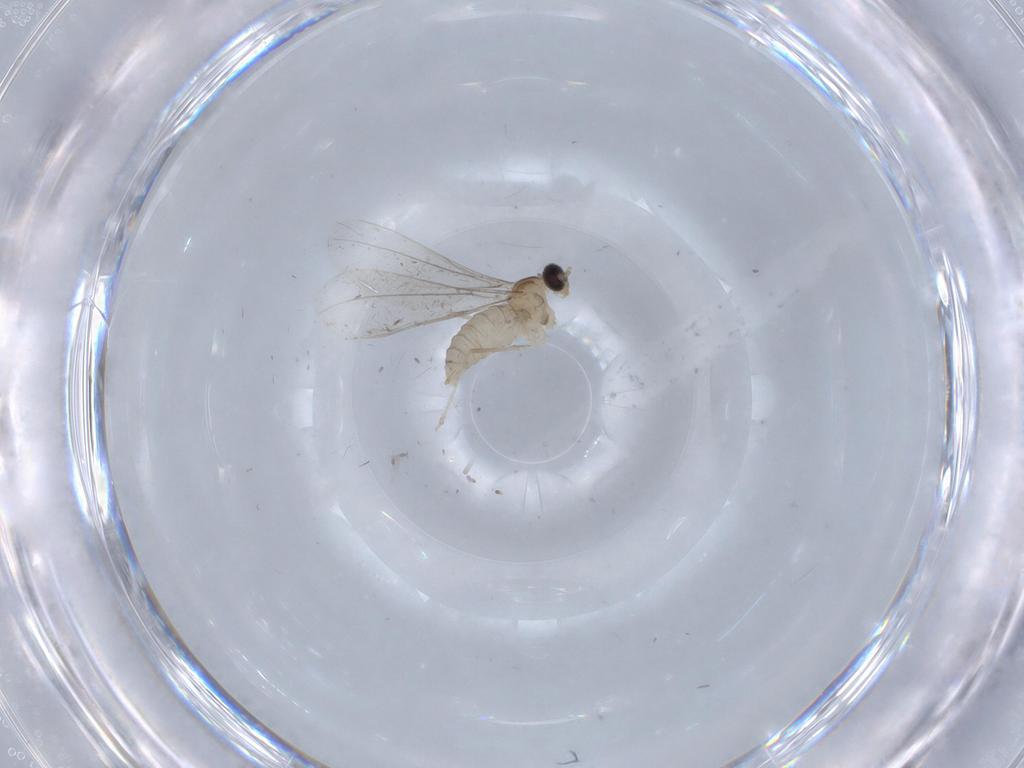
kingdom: Animalia
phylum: Arthropoda
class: Insecta
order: Diptera
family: Cecidomyiidae
